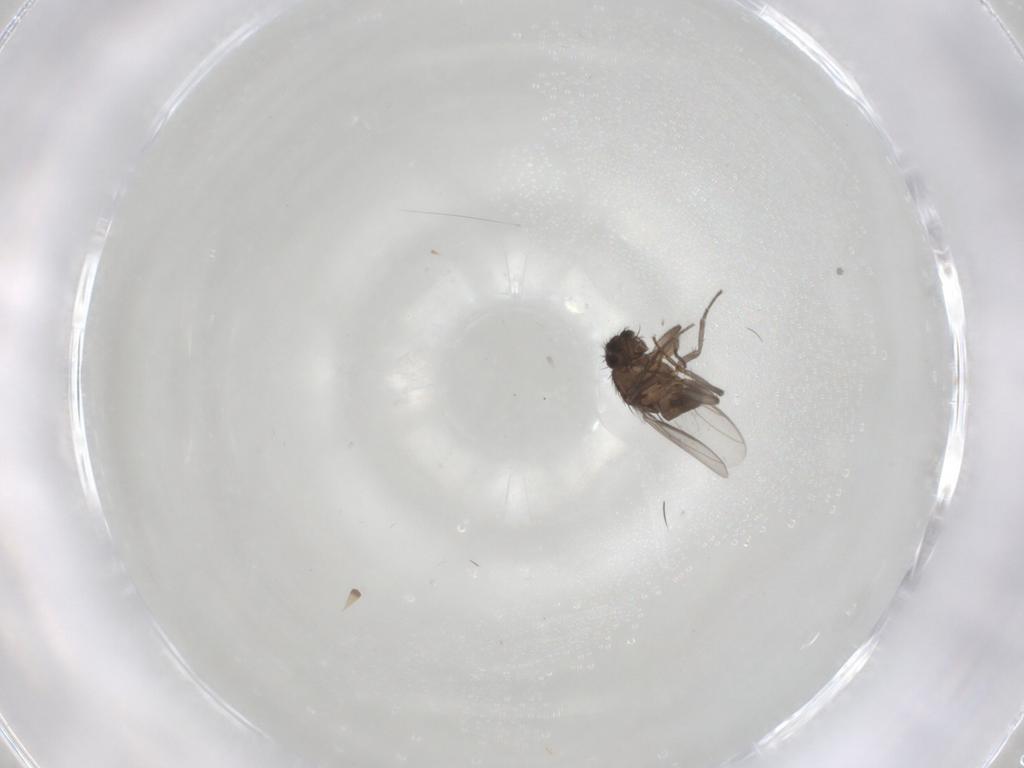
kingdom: Animalia
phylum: Arthropoda
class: Insecta
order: Diptera
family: Sphaeroceridae
